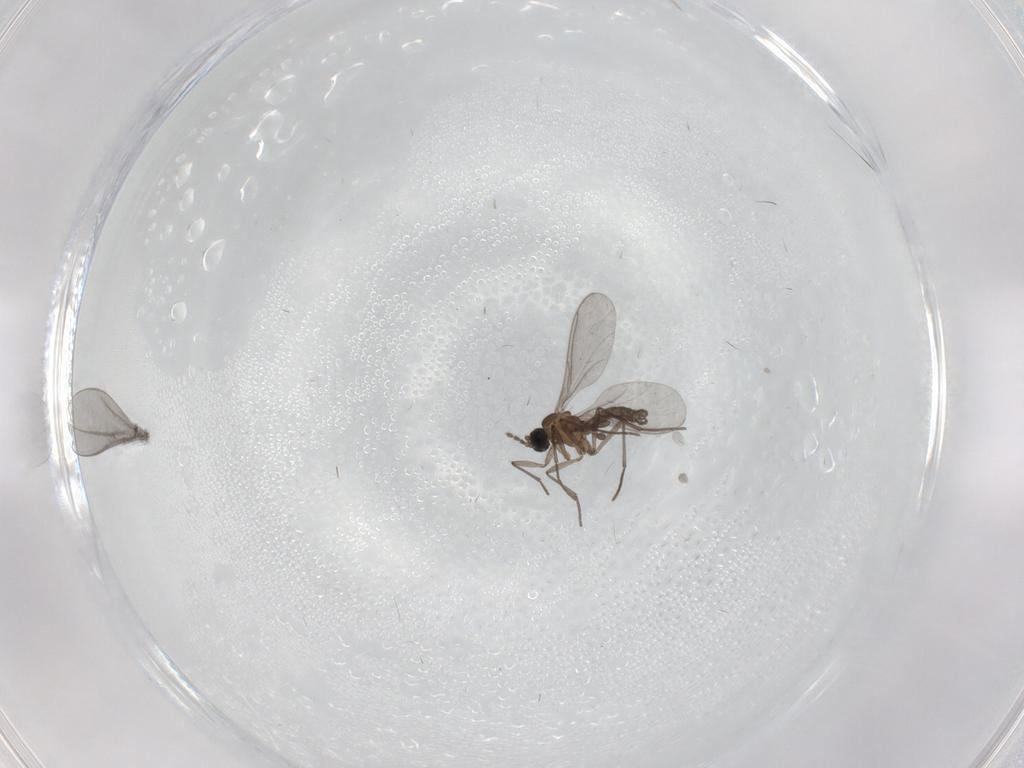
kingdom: Animalia
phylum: Arthropoda
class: Insecta
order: Diptera
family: Sciaridae
